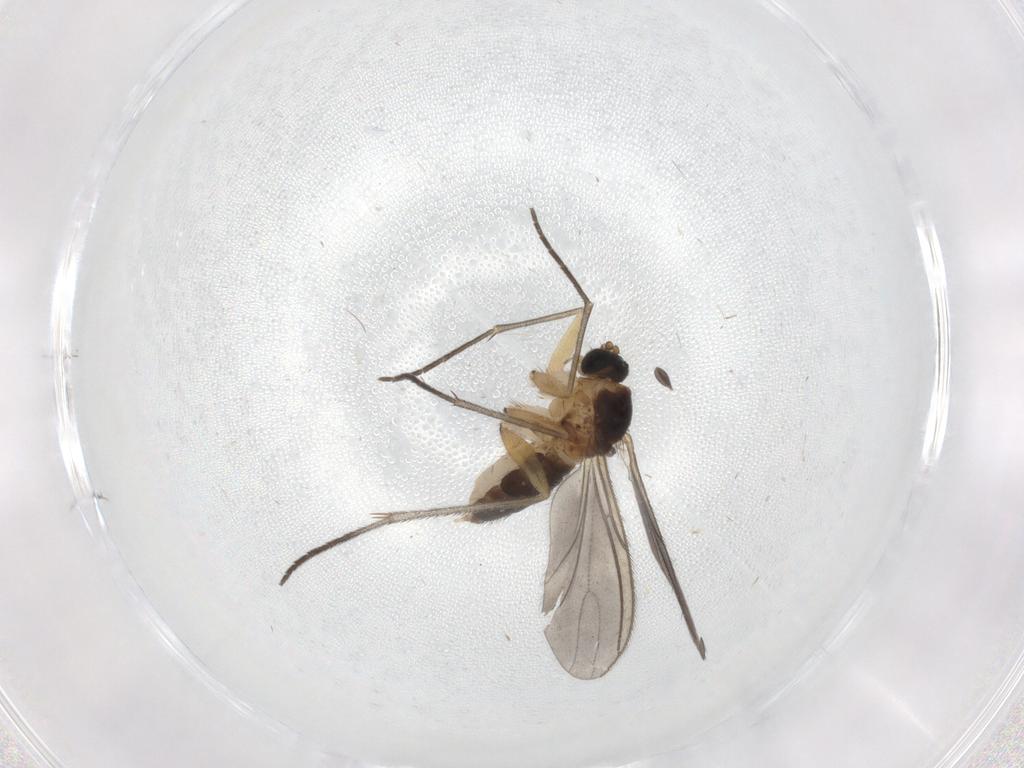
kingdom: Animalia
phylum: Arthropoda
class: Insecta
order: Diptera
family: Sciaridae
